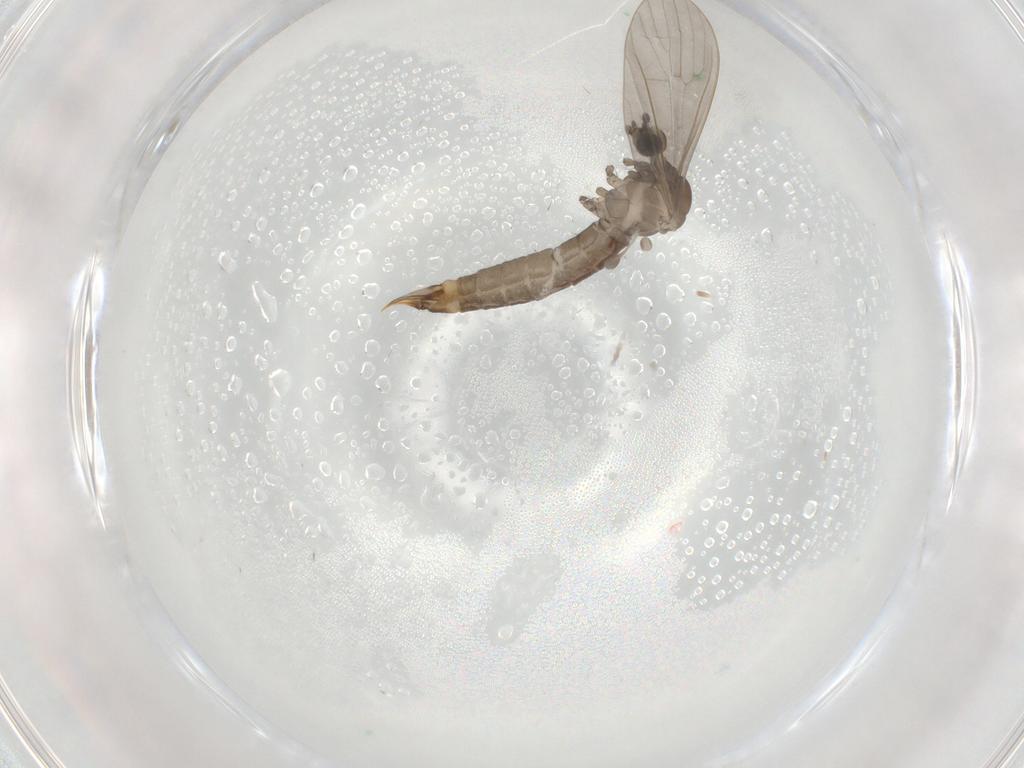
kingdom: Animalia
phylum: Arthropoda
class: Insecta
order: Diptera
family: Limoniidae
